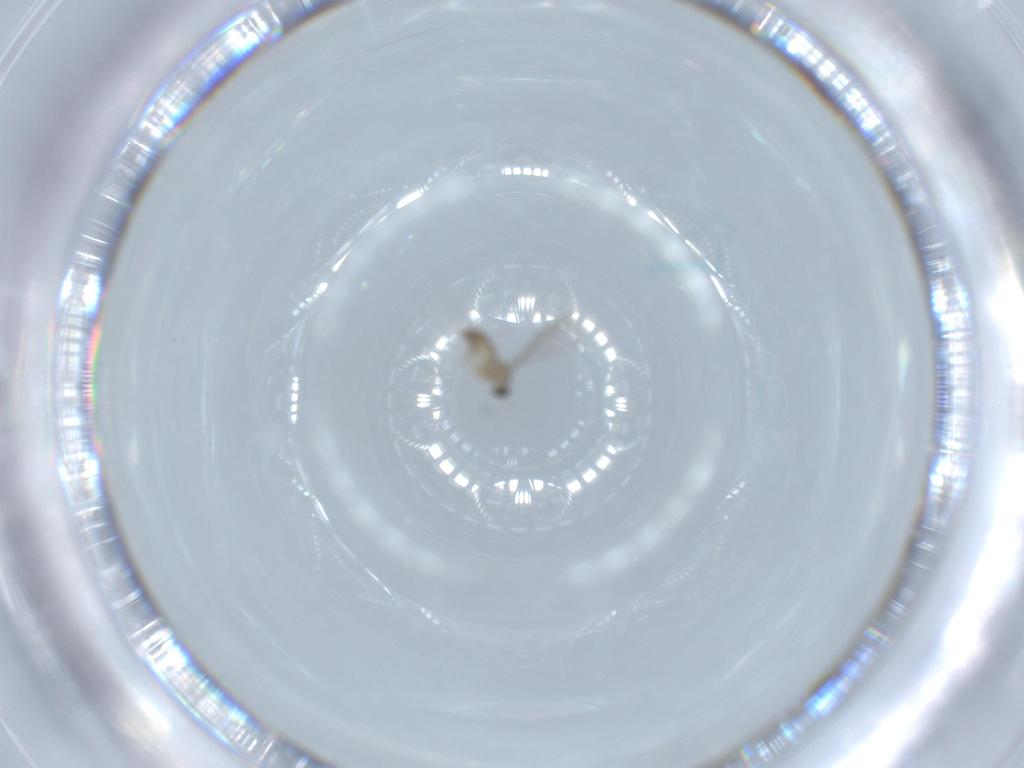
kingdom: Animalia
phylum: Arthropoda
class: Insecta
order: Diptera
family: Cecidomyiidae
